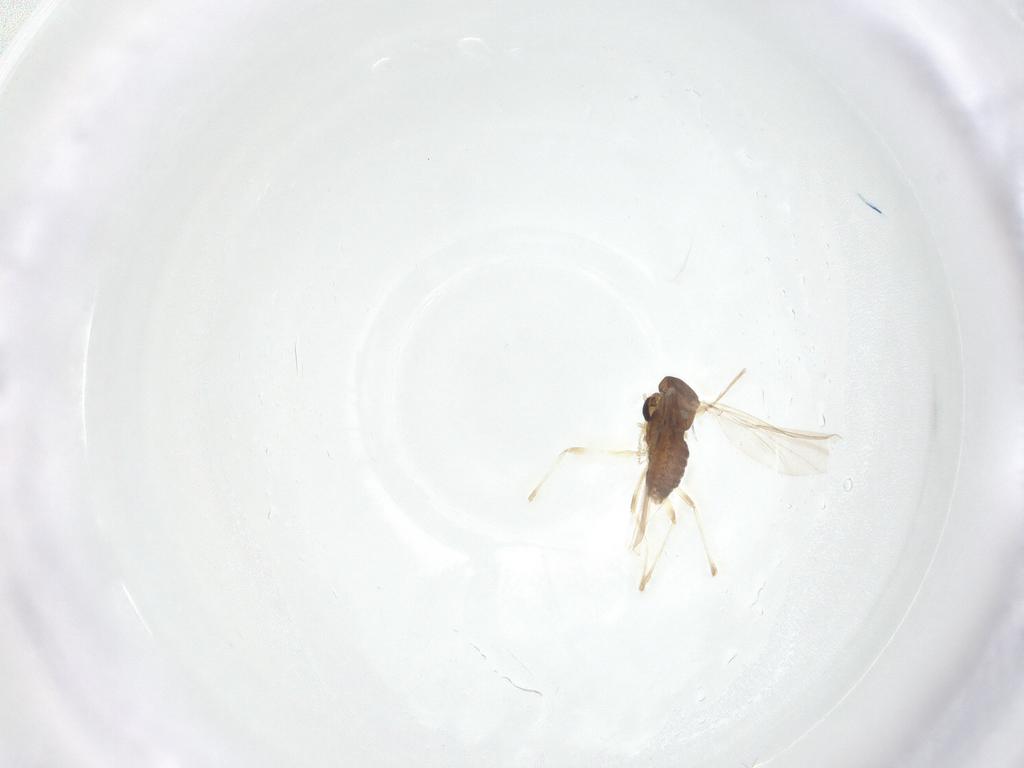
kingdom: Animalia
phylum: Arthropoda
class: Insecta
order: Diptera
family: Chironomidae
